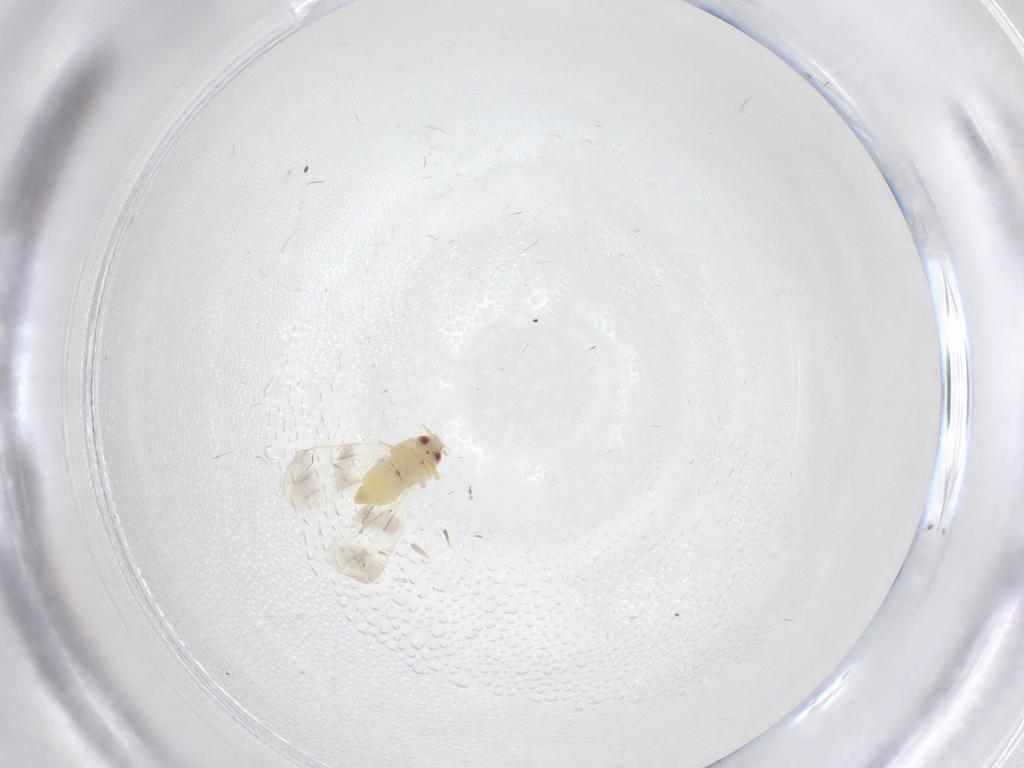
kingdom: Animalia
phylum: Arthropoda
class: Insecta
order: Hemiptera
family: Aleyrodidae
